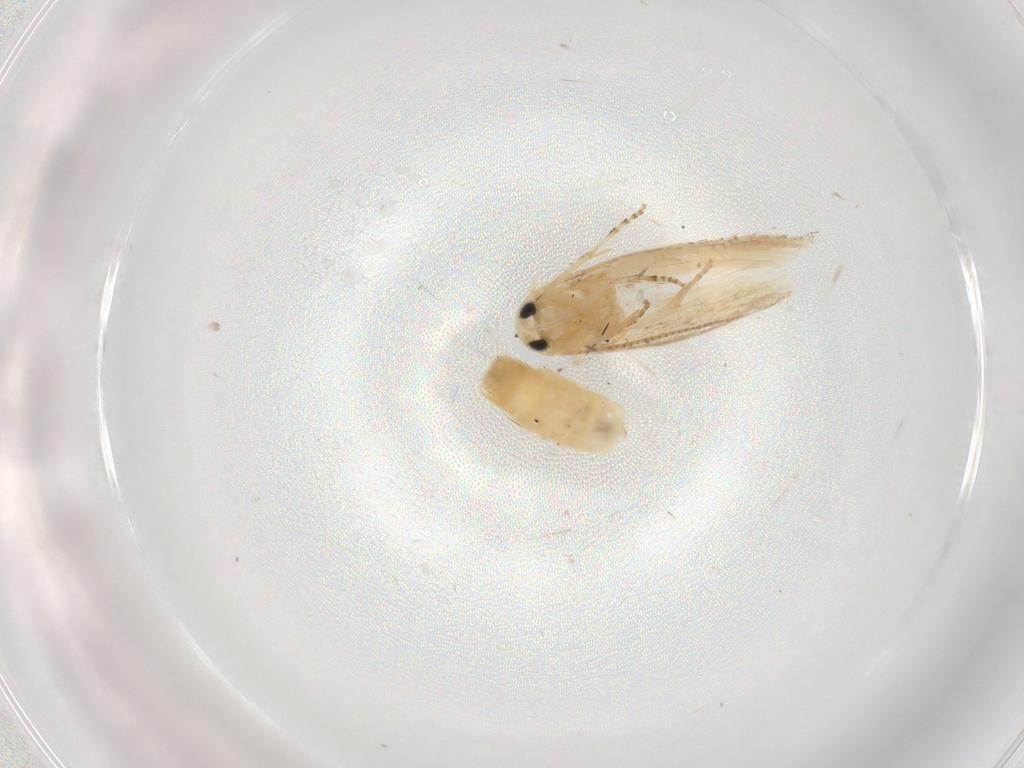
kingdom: Animalia
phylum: Arthropoda
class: Insecta
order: Lepidoptera
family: Bucculatricidae
